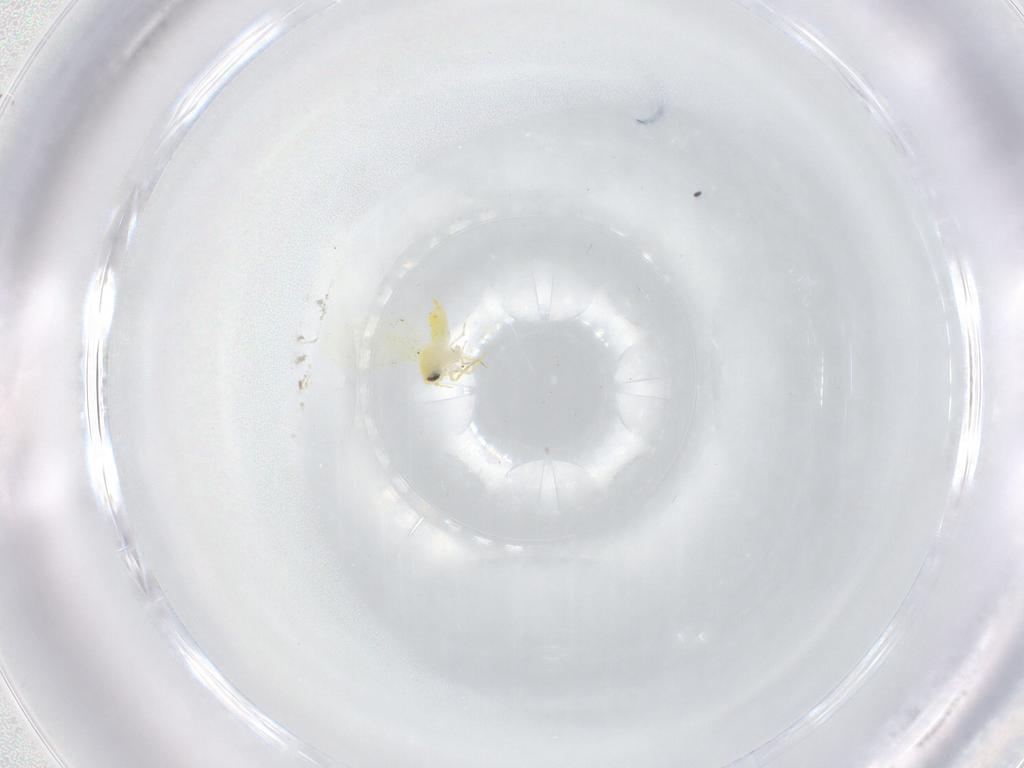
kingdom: Animalia
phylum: Arthropoda
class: Insecta
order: Hemiptera
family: Aleyrodidae
